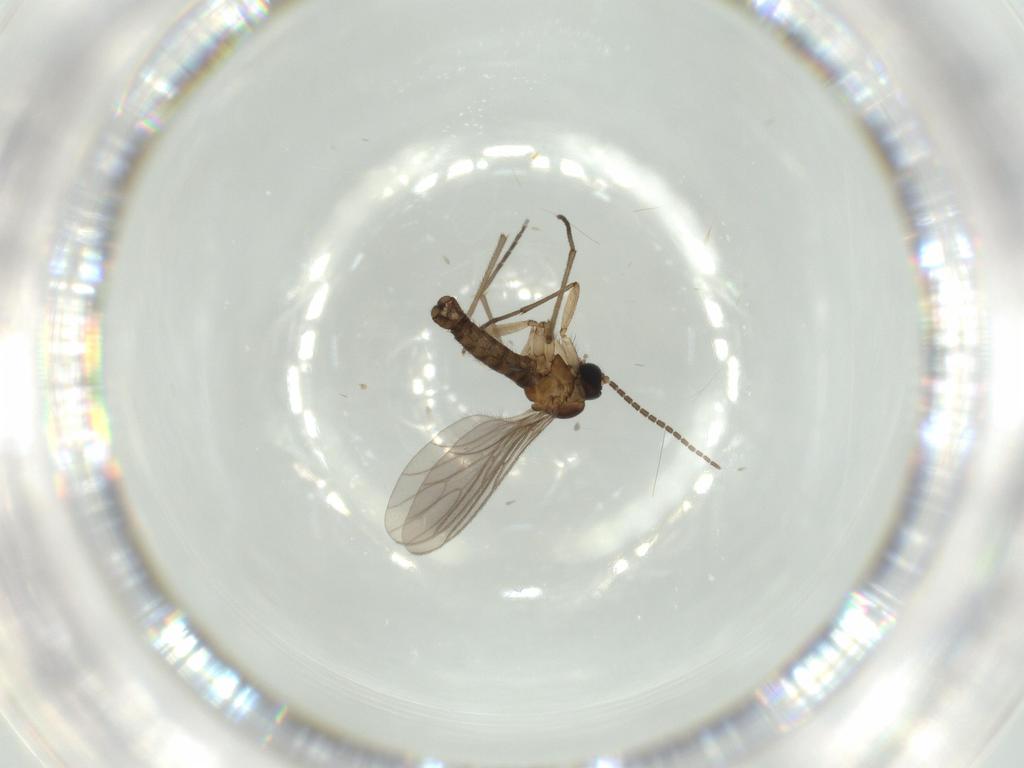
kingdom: Animalia
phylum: Arthropoda
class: Insecta
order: Diptera
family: Sciaridae
